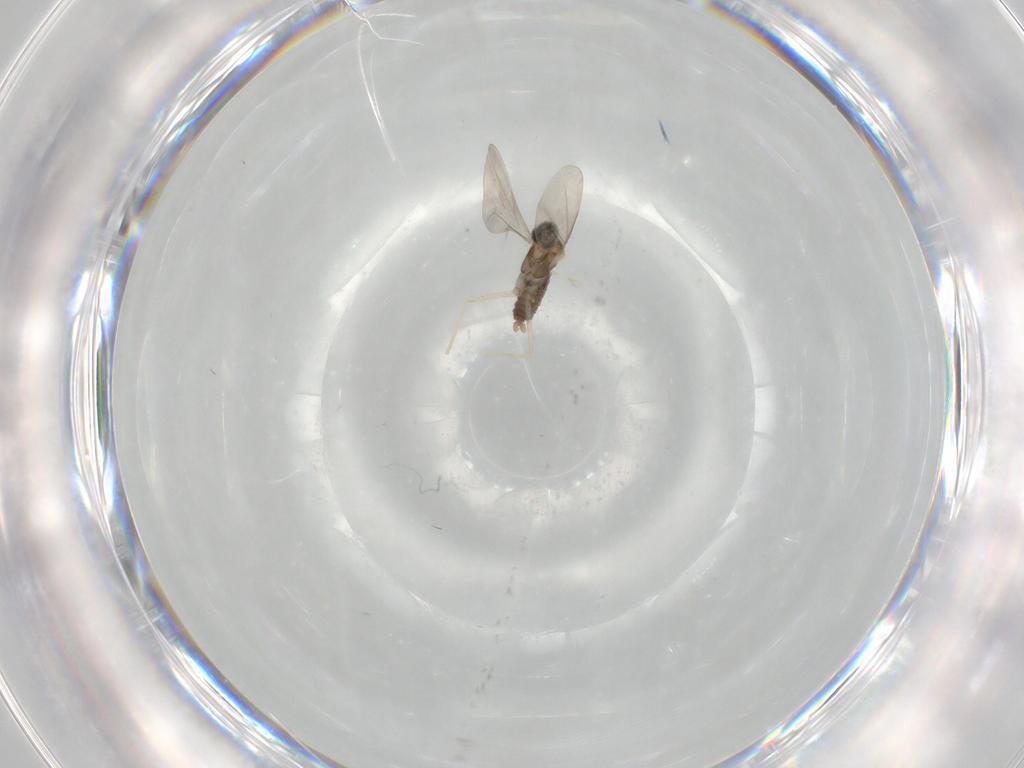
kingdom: Animalia
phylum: Arthropoda
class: Insecta
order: Diptera
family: Cecidomyiidae
